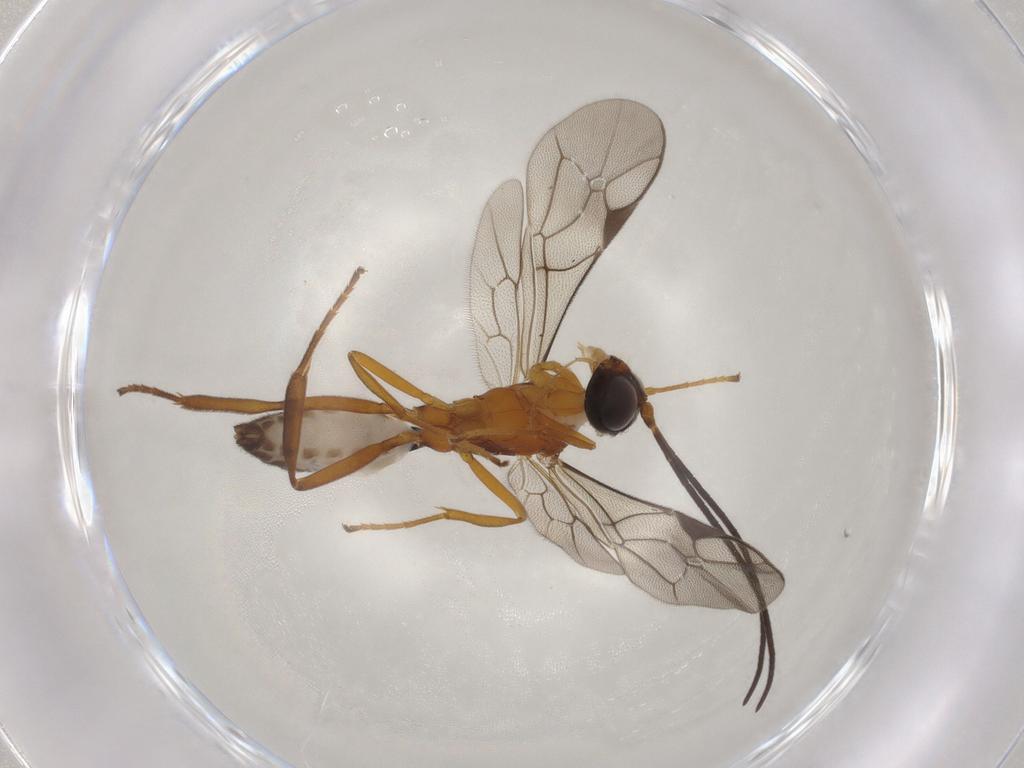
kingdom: Animalia
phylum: Arthropoda
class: Insecta
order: Hymenoptera
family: Ichneumonidae
